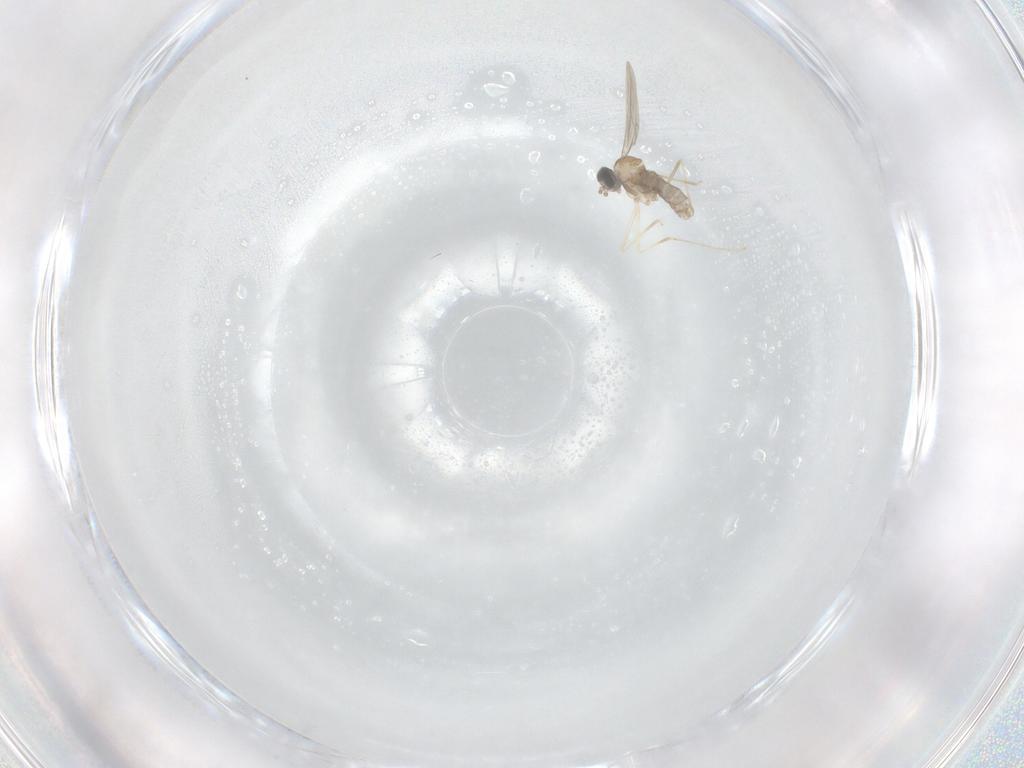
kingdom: Animalia
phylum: Arthropoda
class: Insecta
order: Diptera
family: Cecidomyiidae
